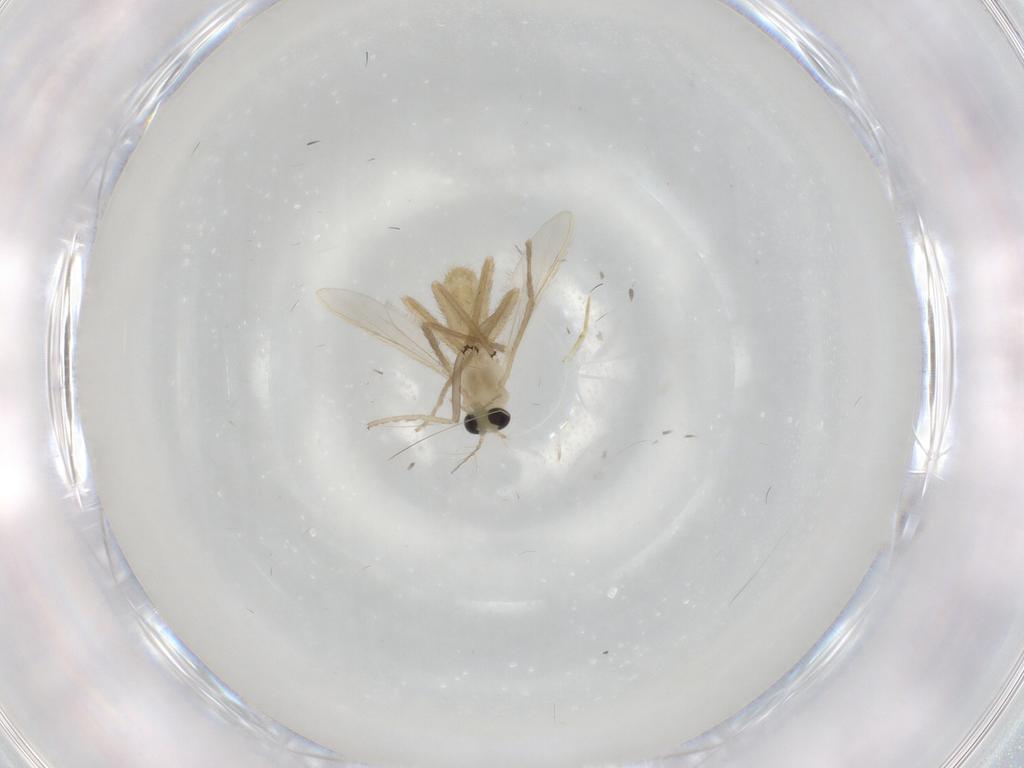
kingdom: Animalia
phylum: Arthropoda
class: Insecta
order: Diptera
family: Chironomidae
